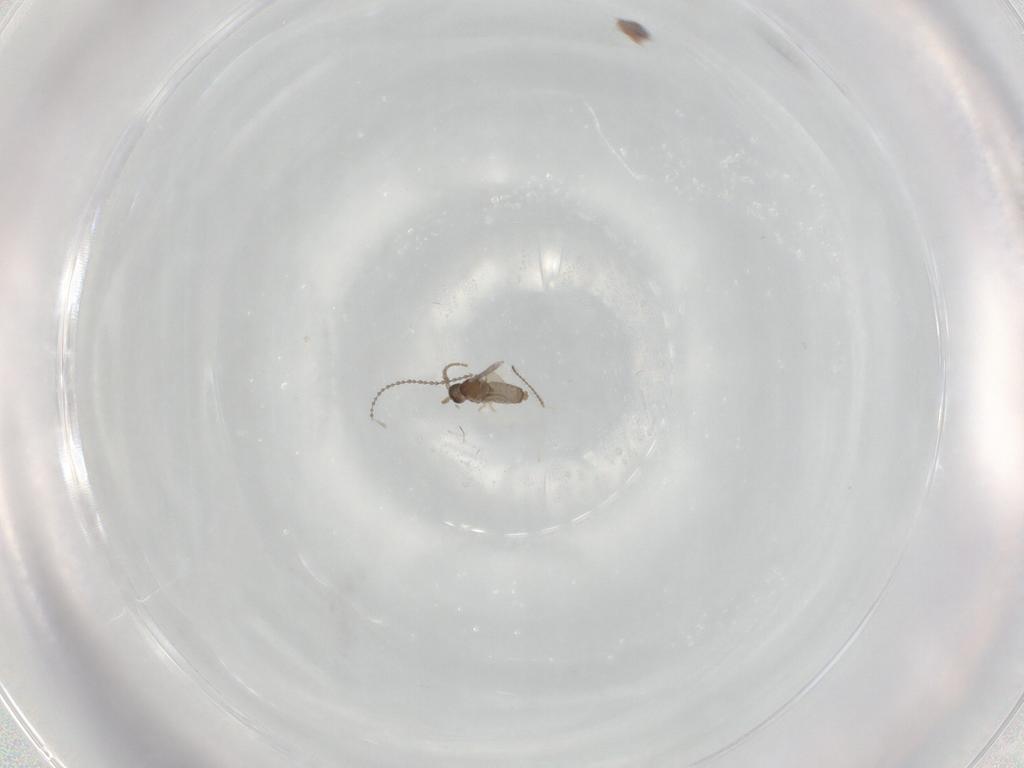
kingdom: Animalia
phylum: Arthropoda
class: Insecta
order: Diptera
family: Cecidomyiidae
